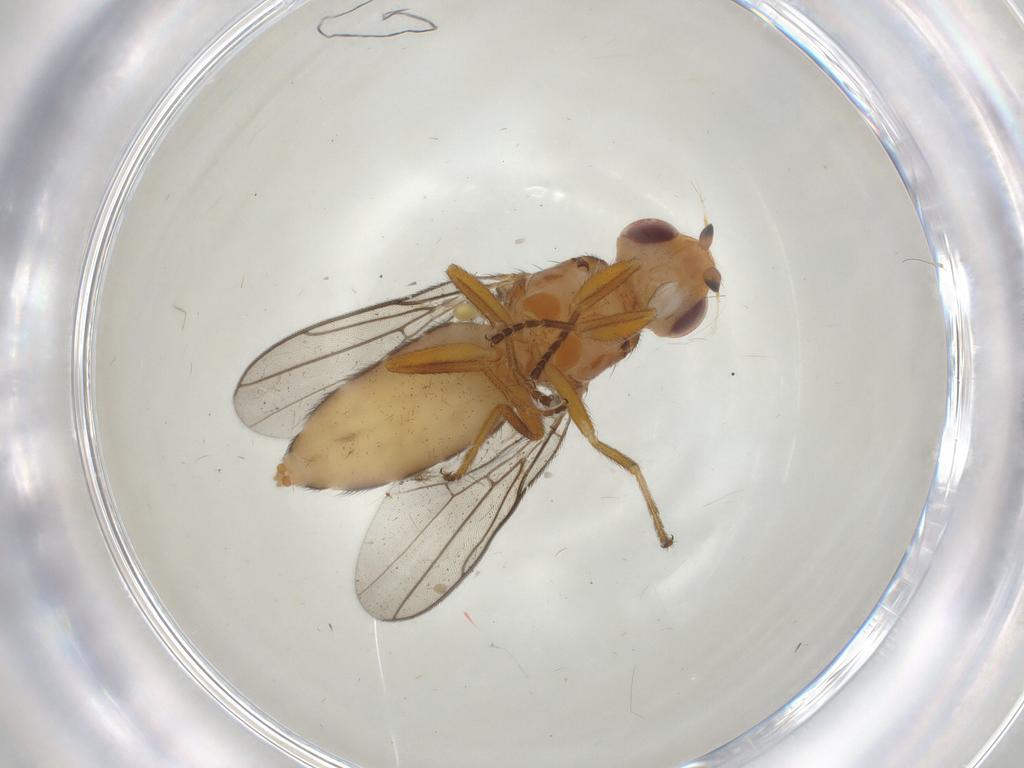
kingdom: Animalia
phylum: Arthropoda
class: Insecta
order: Diptera
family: Chloropidae
